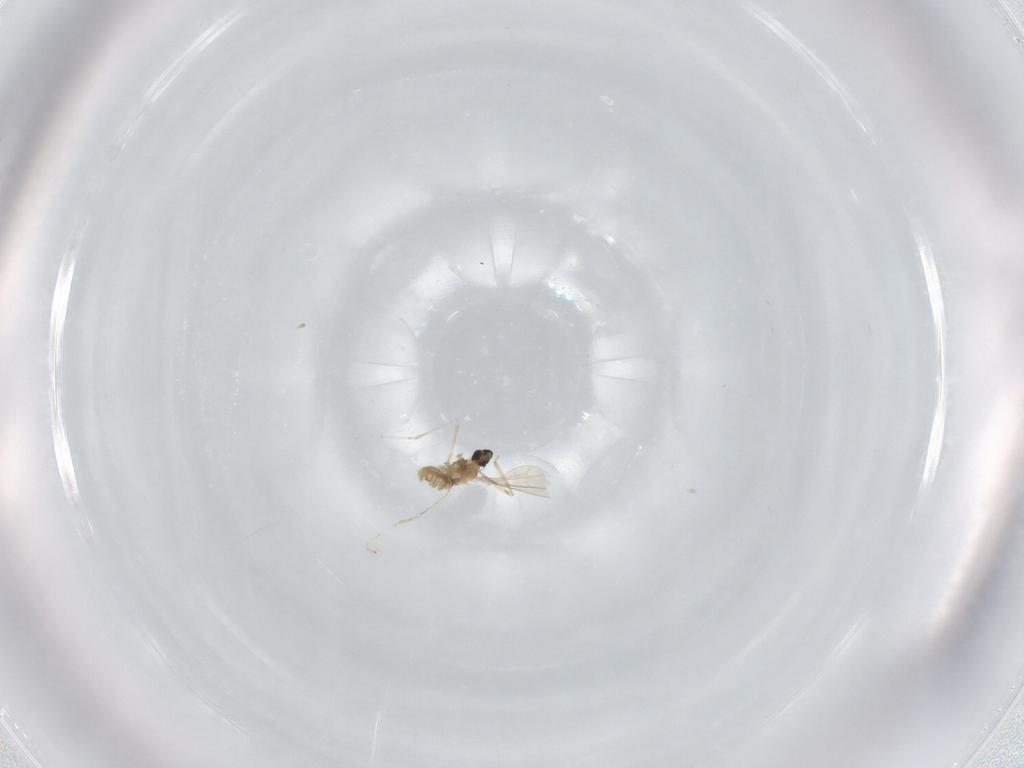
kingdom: Animalia
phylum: Arthropoda
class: Insecta
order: Diptera
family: Cecidomyiidae
